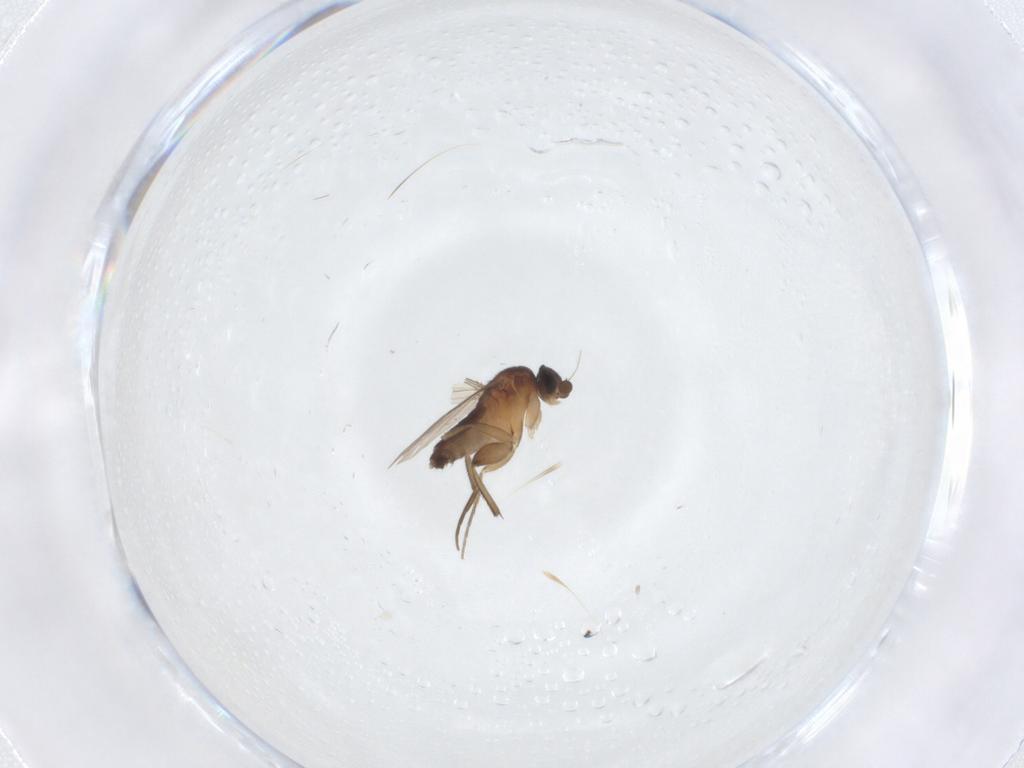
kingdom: Animalia
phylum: Arthropoda
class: Insecta
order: Diptera
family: Phoridae
